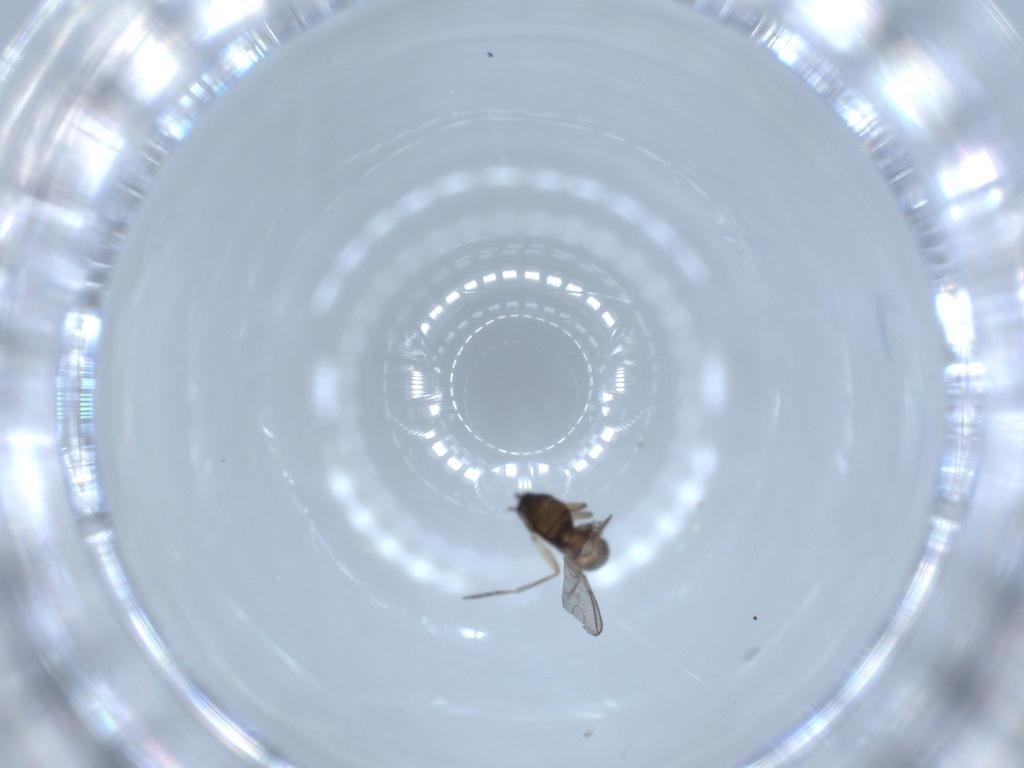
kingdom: Animalia
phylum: Arthropoda
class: Insecta
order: Diptera
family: Sciaridae
